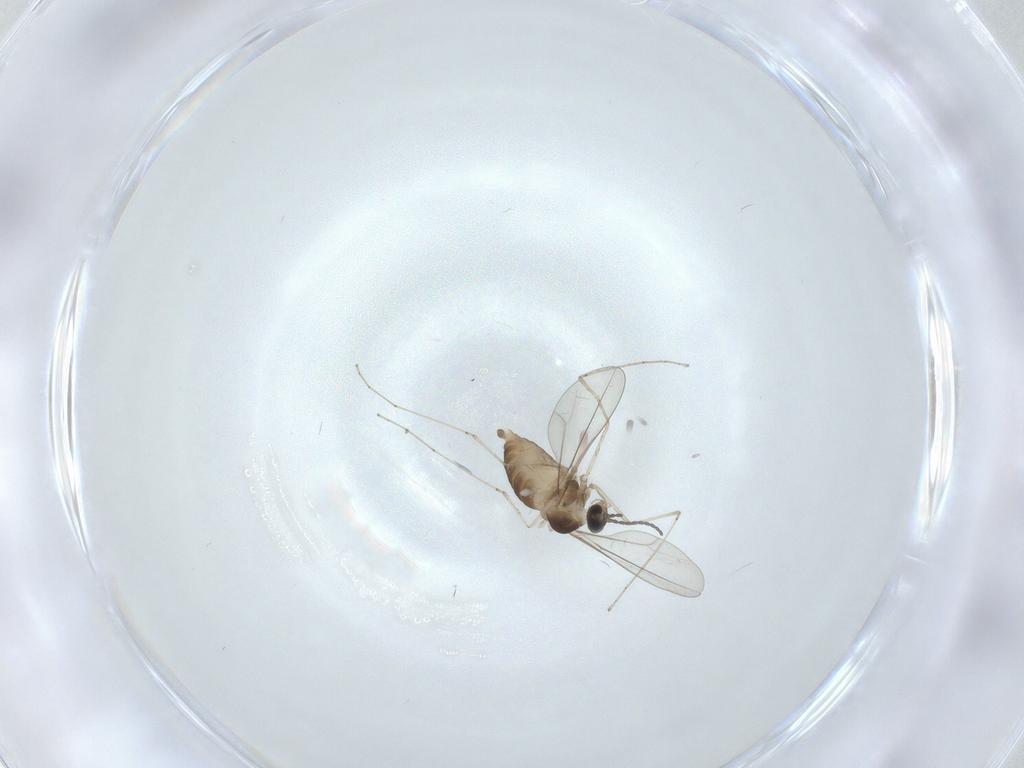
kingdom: Animalia
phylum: Arthropoda
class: Insecta
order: Diptera
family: Cecidomyiidae
